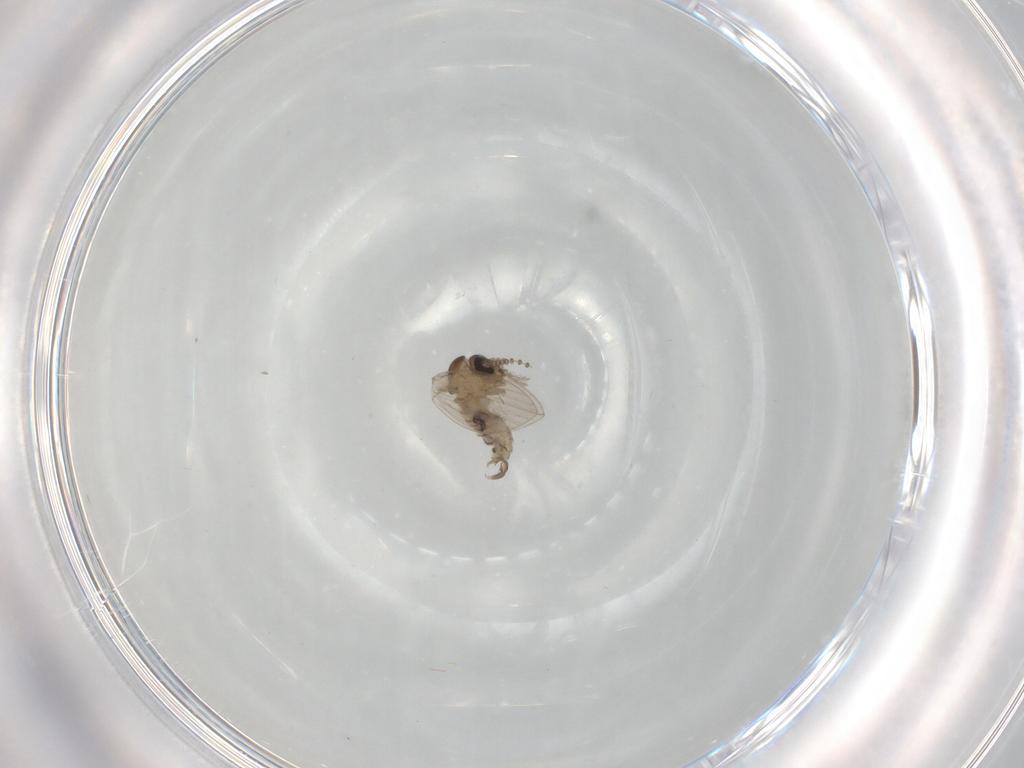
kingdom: Animalia
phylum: Arthropoda
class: Insecta
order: Diptera
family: Psychodidae
